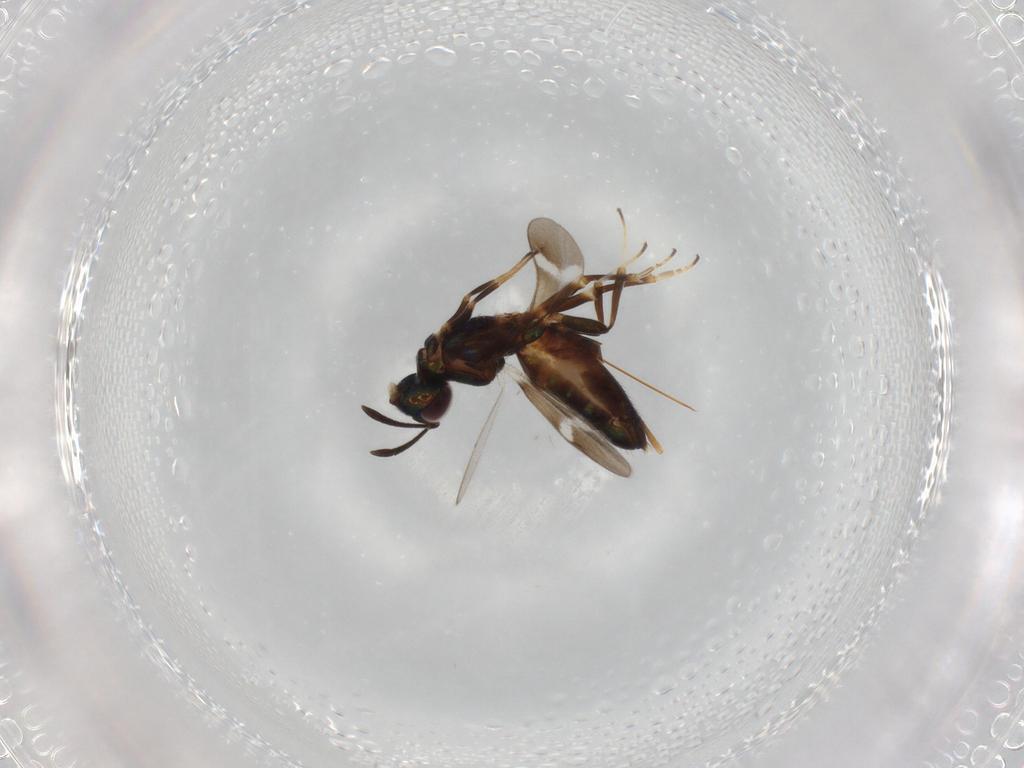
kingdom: Animalia
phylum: Arthropoda
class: Insecta
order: Hymenoptera
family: Eupelmidae
